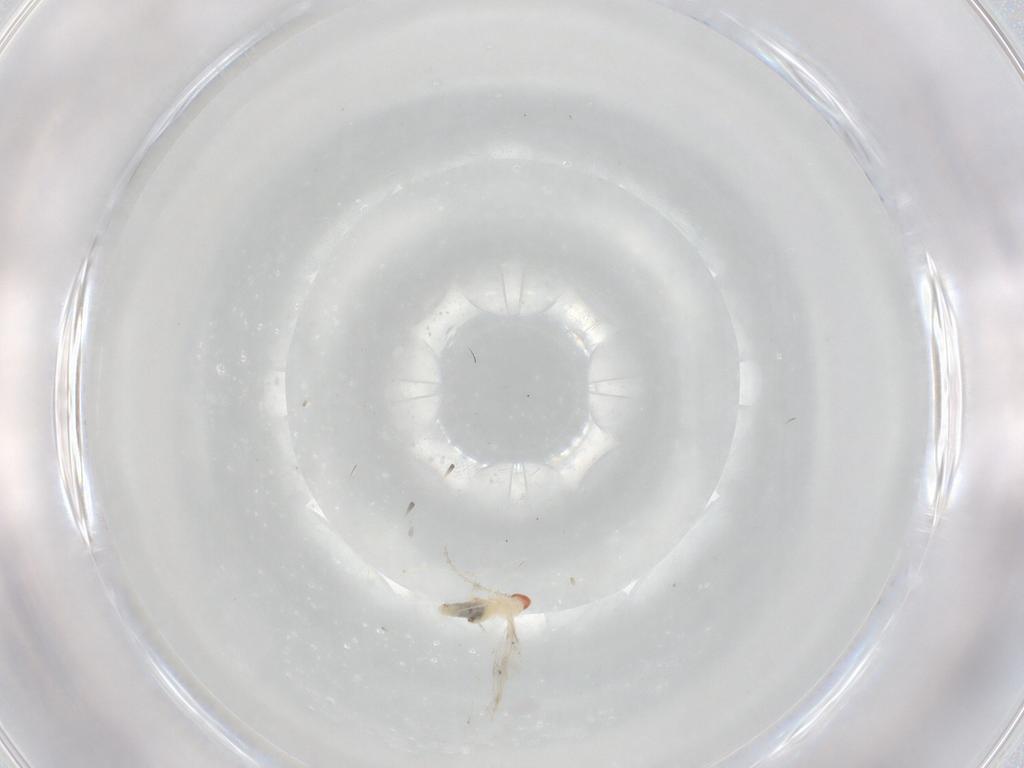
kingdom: Animalia
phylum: Arthropoda
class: Insecta
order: Diptera
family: Cecidomyiidae
